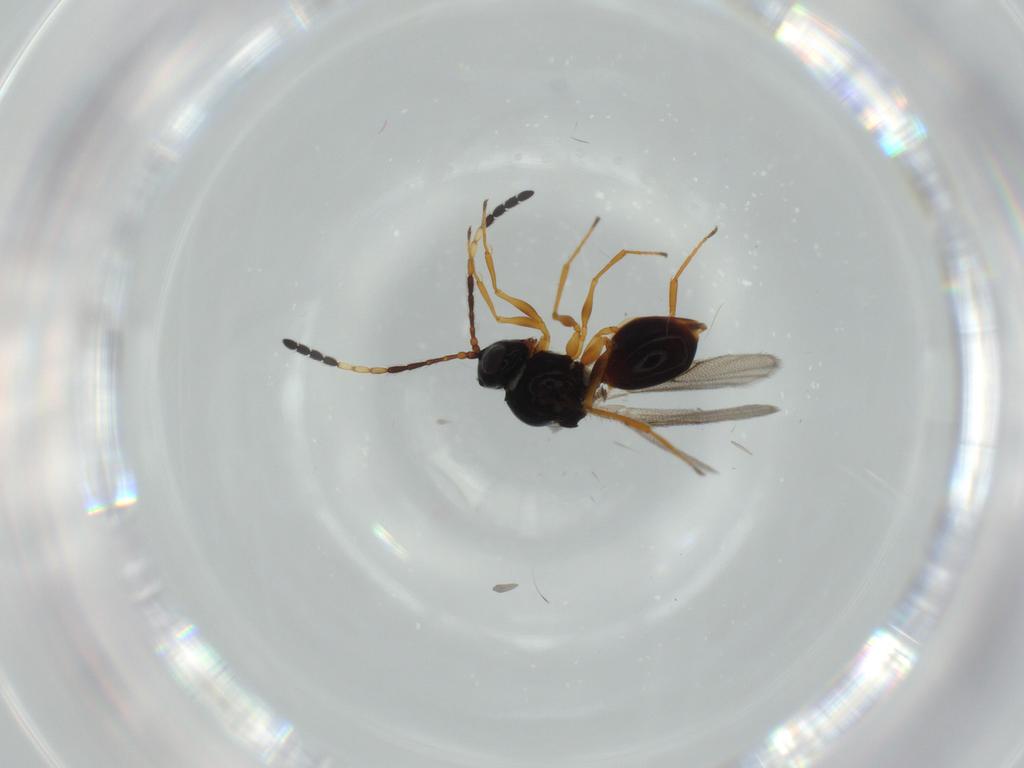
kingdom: Animalia
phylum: Arthropoda
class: Insecta
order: Hymenoptera
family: Figitidae
